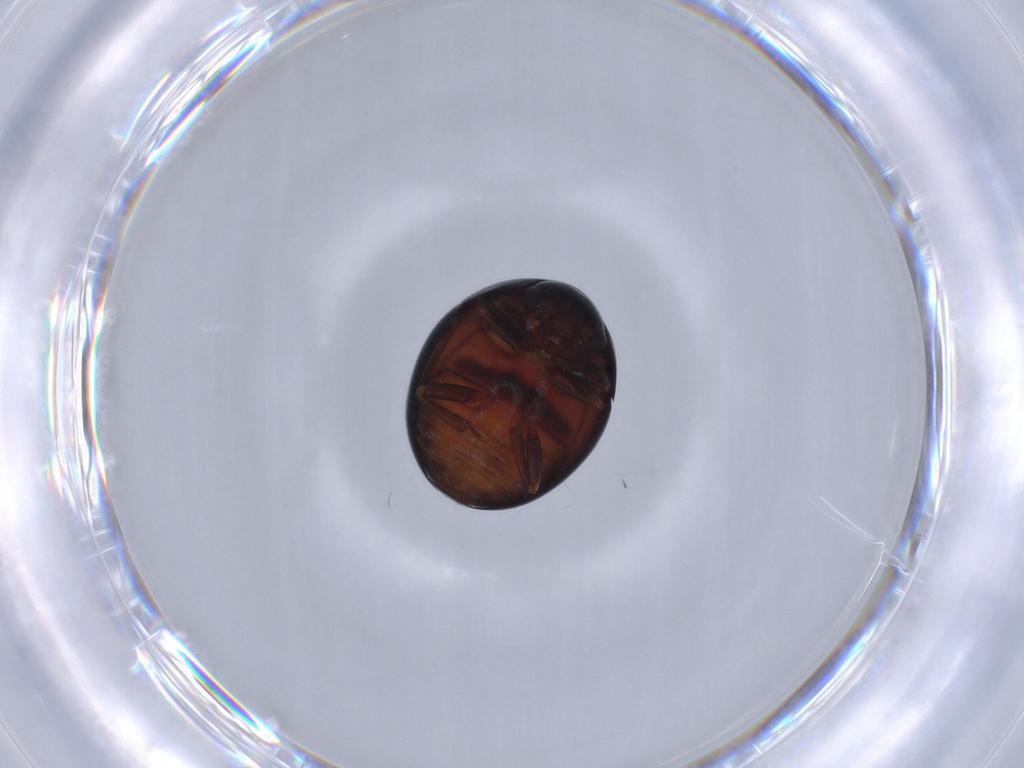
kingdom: Animalia
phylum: Arthropoda
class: Insecta
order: Coleoptera
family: Nitidulidae
